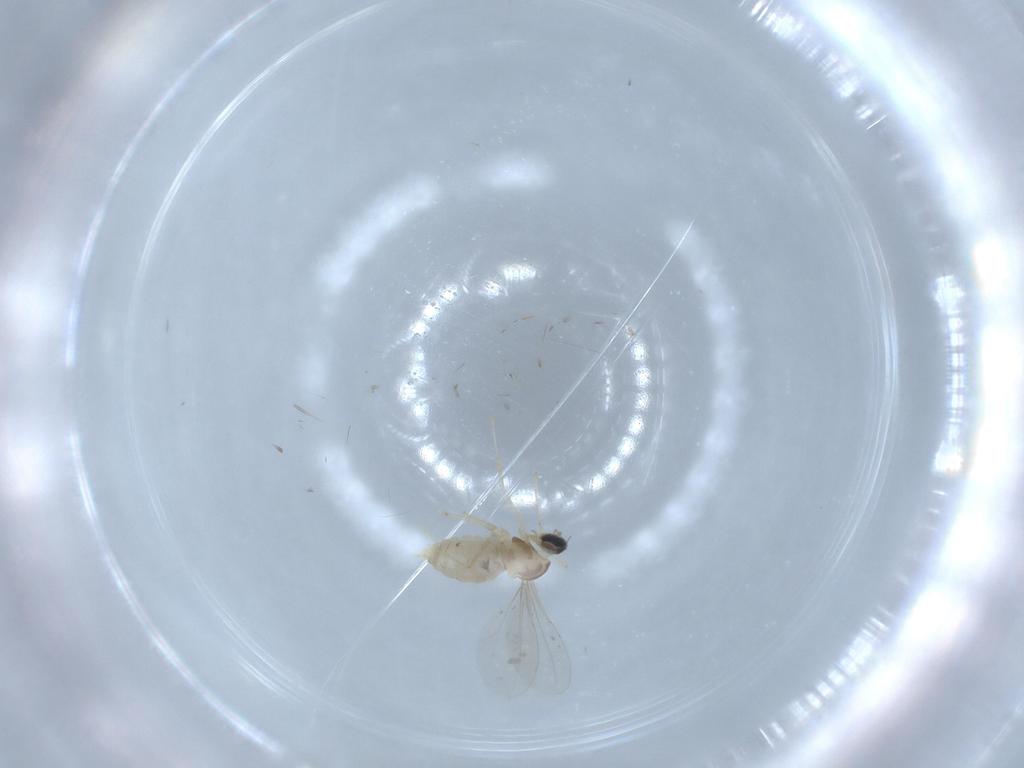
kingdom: Animalia
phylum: Arthropoda
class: Insecta
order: Diptera
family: Cecidomyiidae
